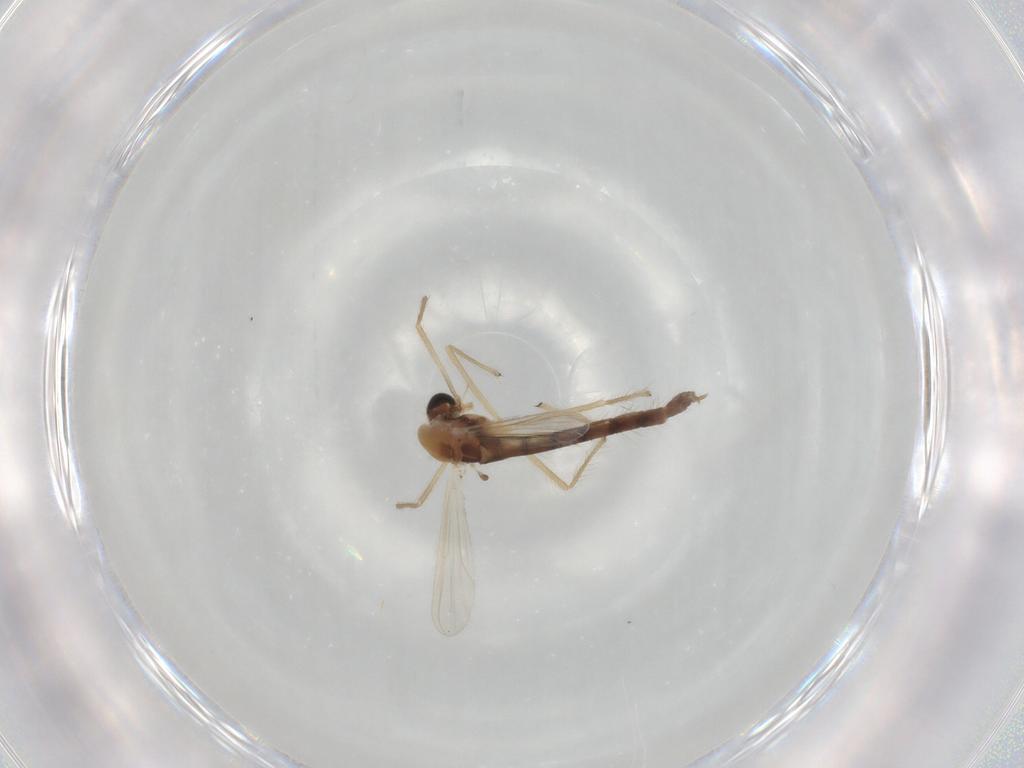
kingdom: Animalia
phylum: Arthropoda
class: Insecta
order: Diptera
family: Chironomidae
